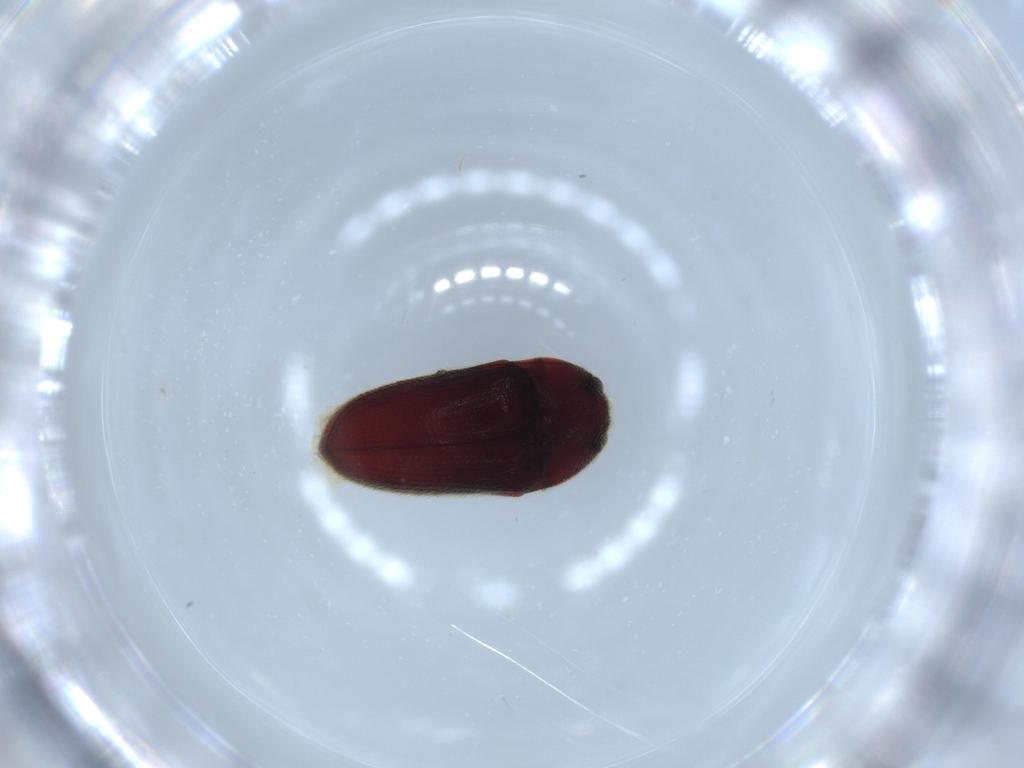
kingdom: Animalia
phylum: Arthropoda
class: Insecta
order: Coleoptera
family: Throscidae
